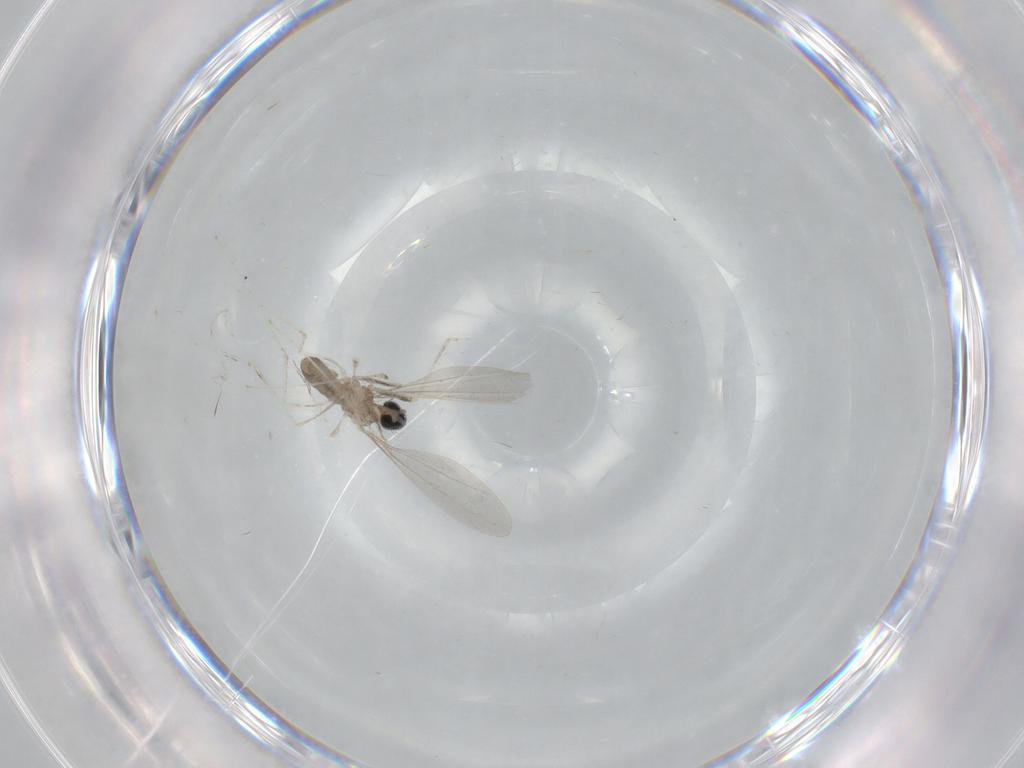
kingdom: Animalia
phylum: Arthropoda
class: Insecta
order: Diptera
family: Cecidomyiidae
